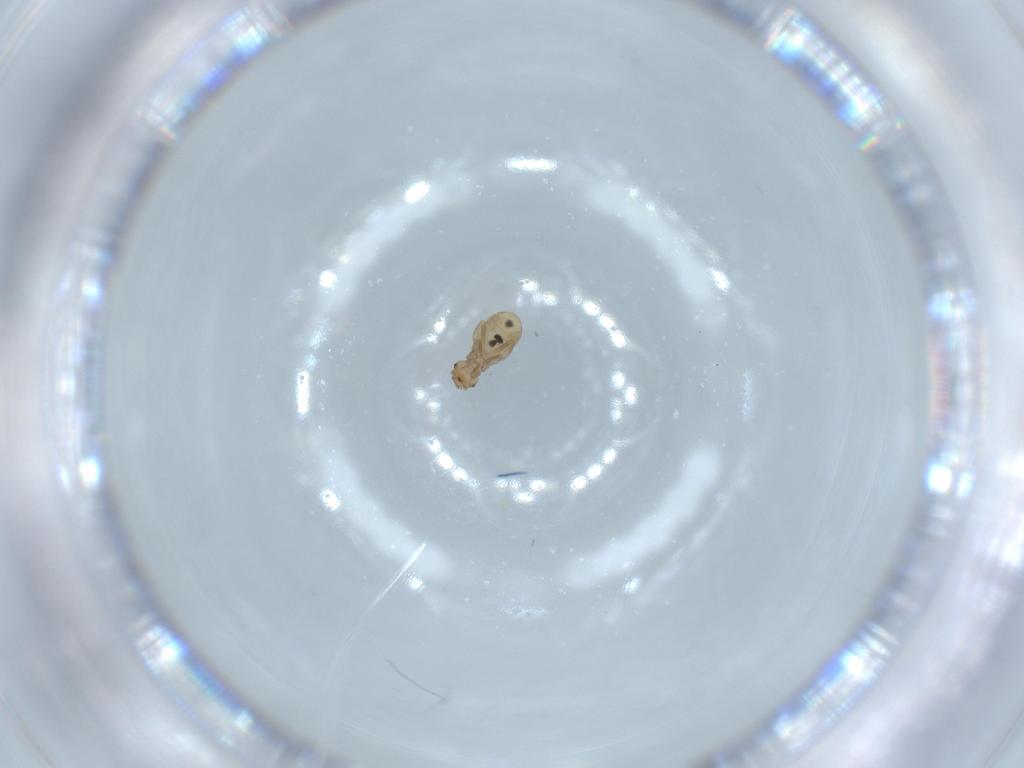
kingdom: Animalia
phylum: Arthropoda
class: Insecta
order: Psocodea
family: Liposcelididae
